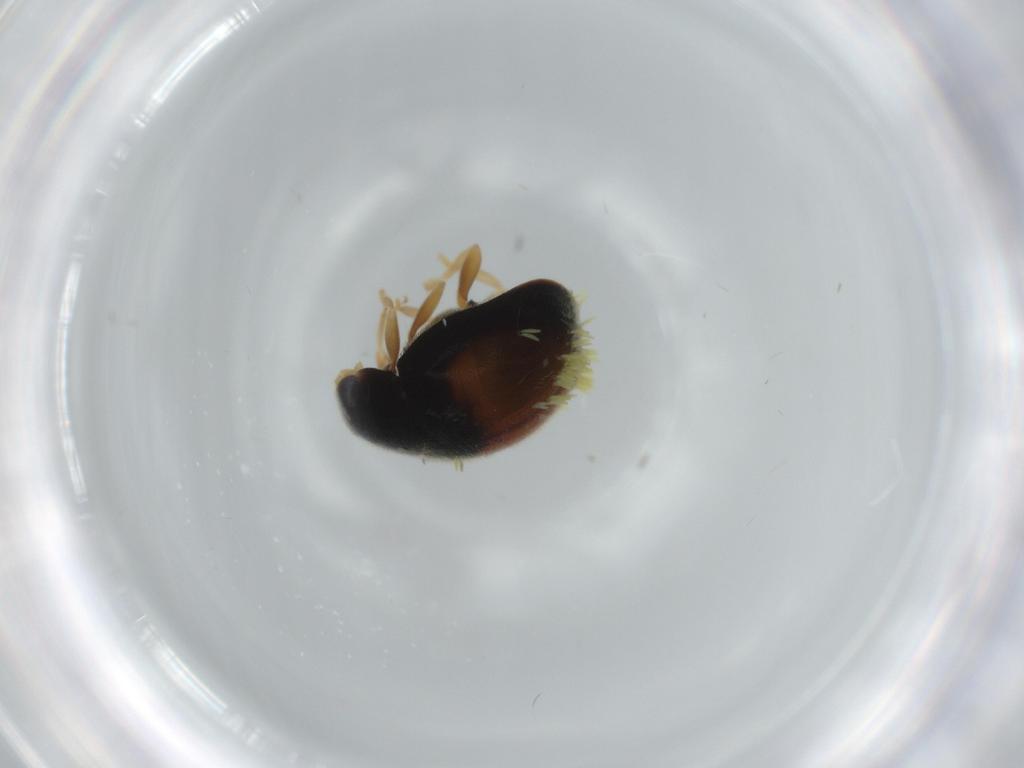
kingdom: Animalia
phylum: Arthropoda
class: Insecta
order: Coleoptera
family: Coccinellidae
